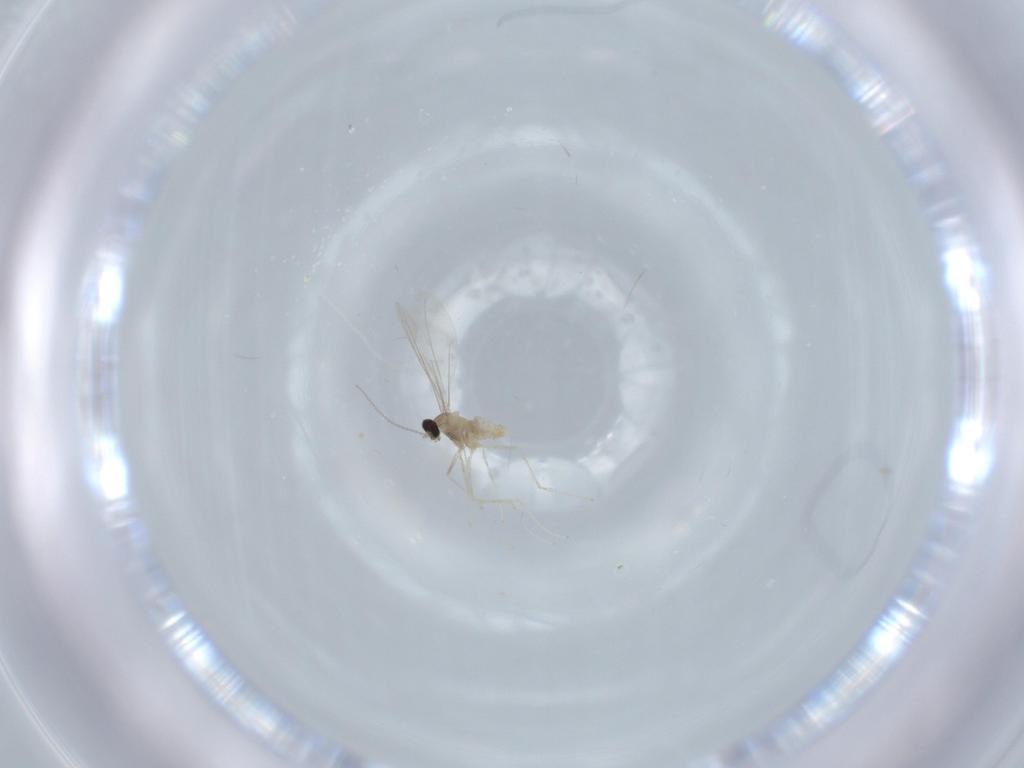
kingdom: Animalia
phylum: Arthropoda
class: Insecta
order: Diptera
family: Cecidomyiidae
